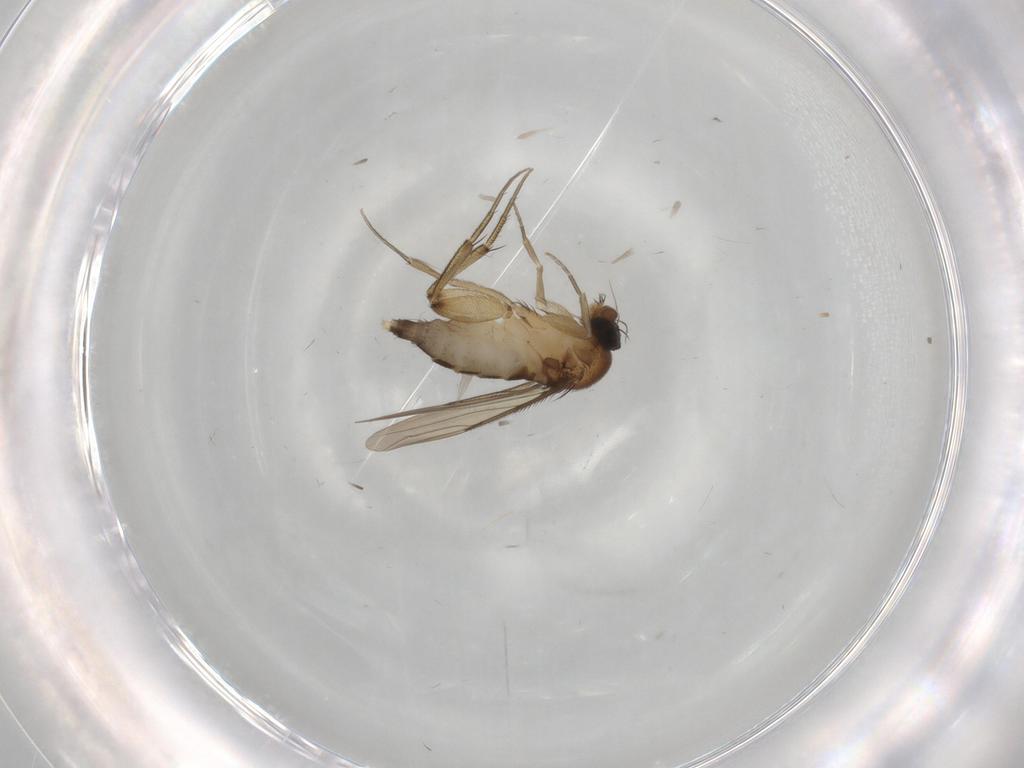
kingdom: Animalia
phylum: Arthropoda
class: Insecta
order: Diptera
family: Phoridae
